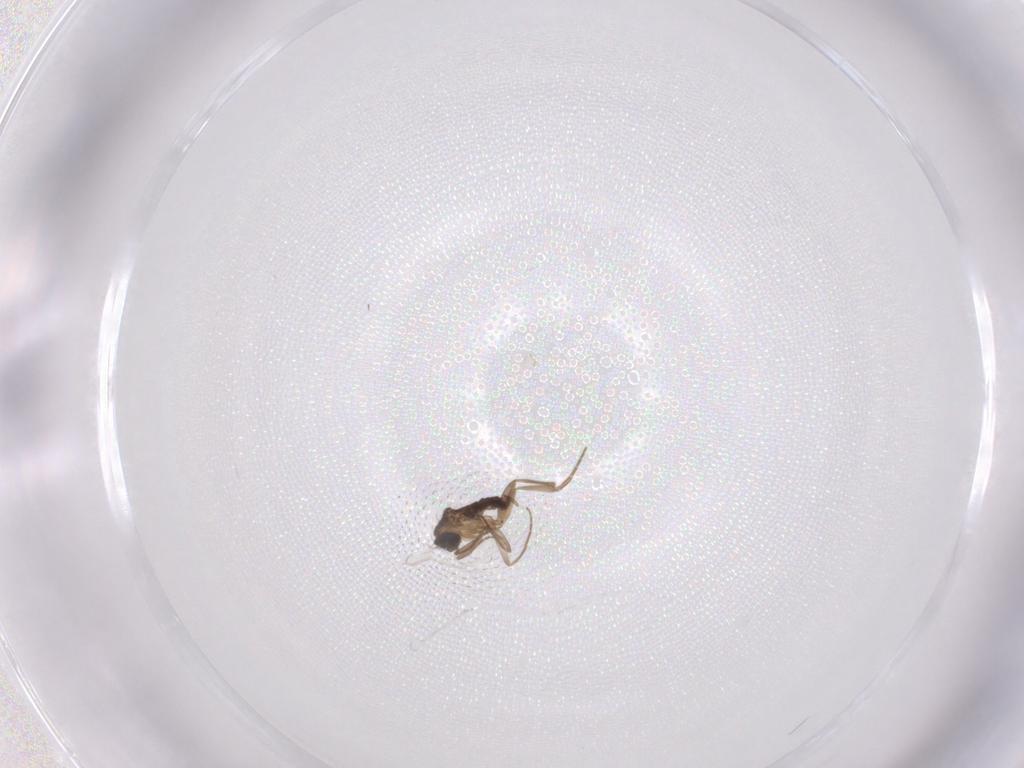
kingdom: Animalia
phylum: Arthropoda
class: Insecta
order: Diptera
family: Phoridae
